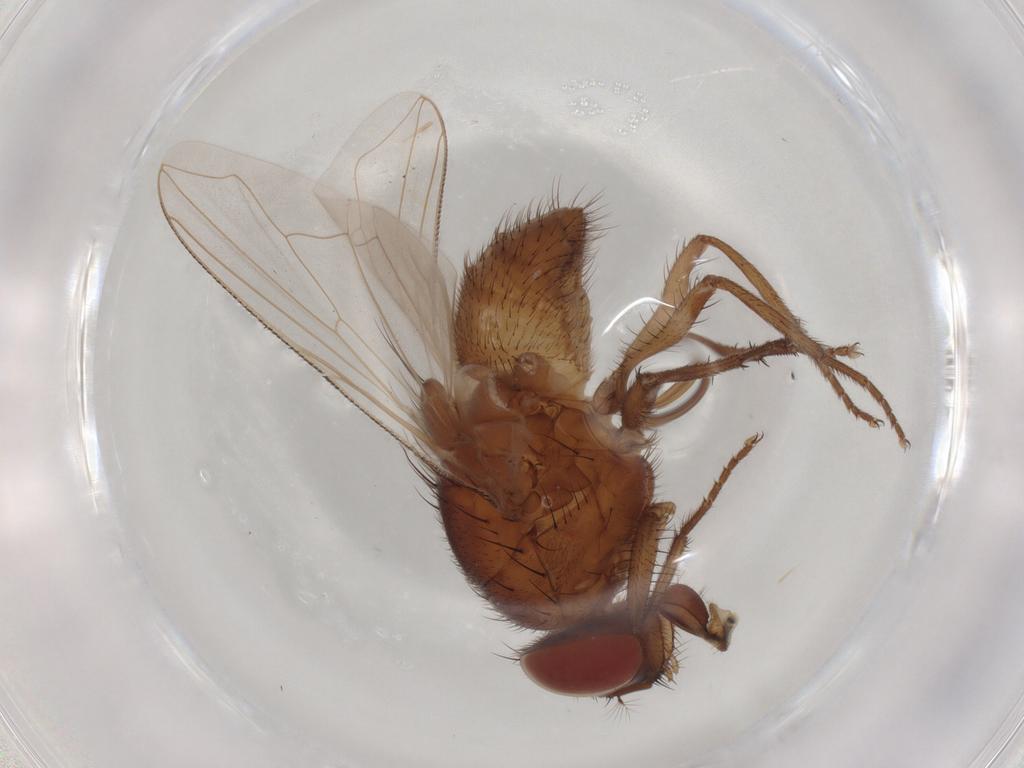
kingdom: Animalia
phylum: Arthropoda
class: Insecta
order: Diptera
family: Muscidae
